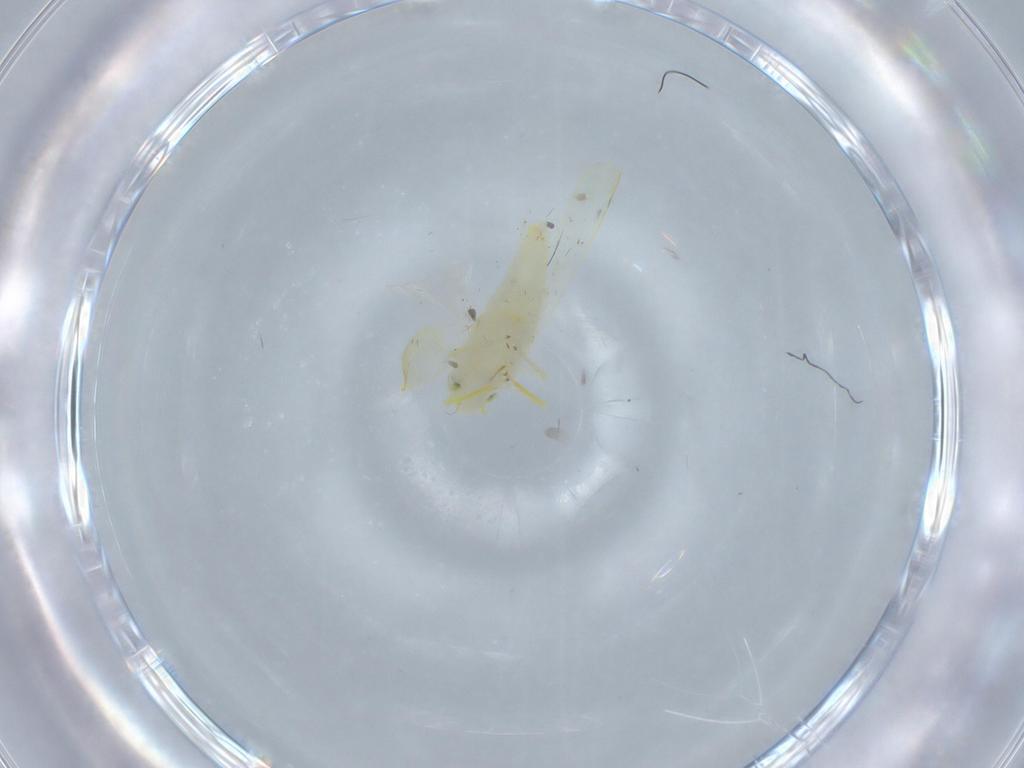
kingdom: Animalia
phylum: Arthropoda
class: Insecta
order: Hemiptera
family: Cicadellidae
